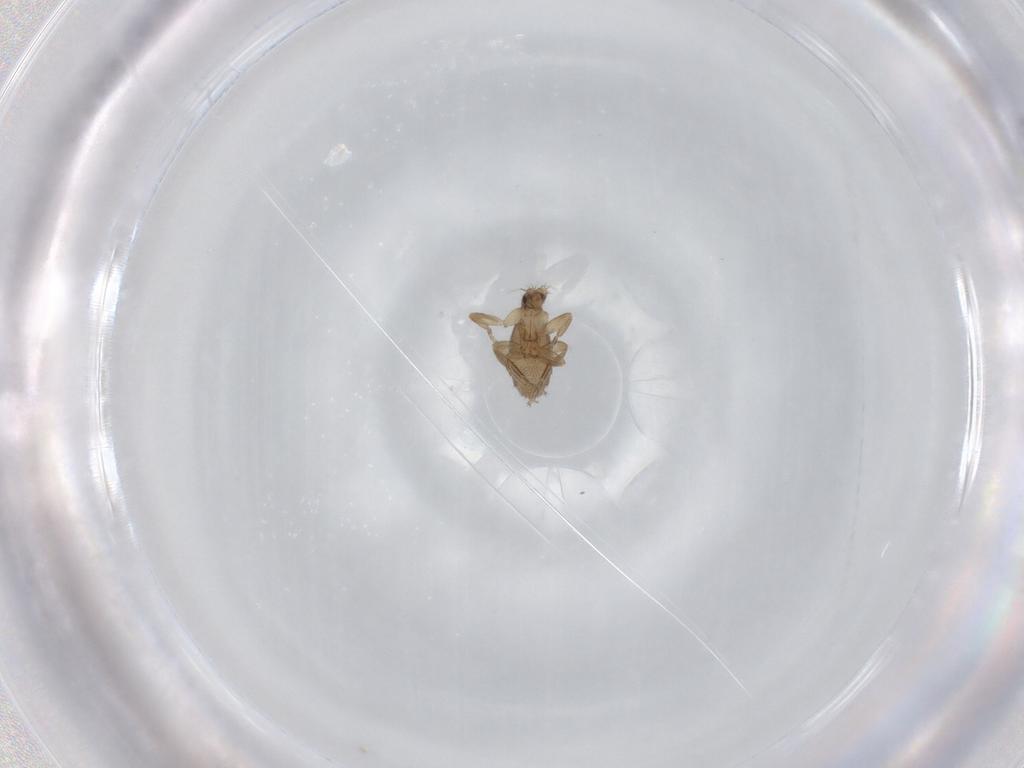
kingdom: Animalia
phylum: Arthropoda
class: Insecta
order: Diptera
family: Phoridae
